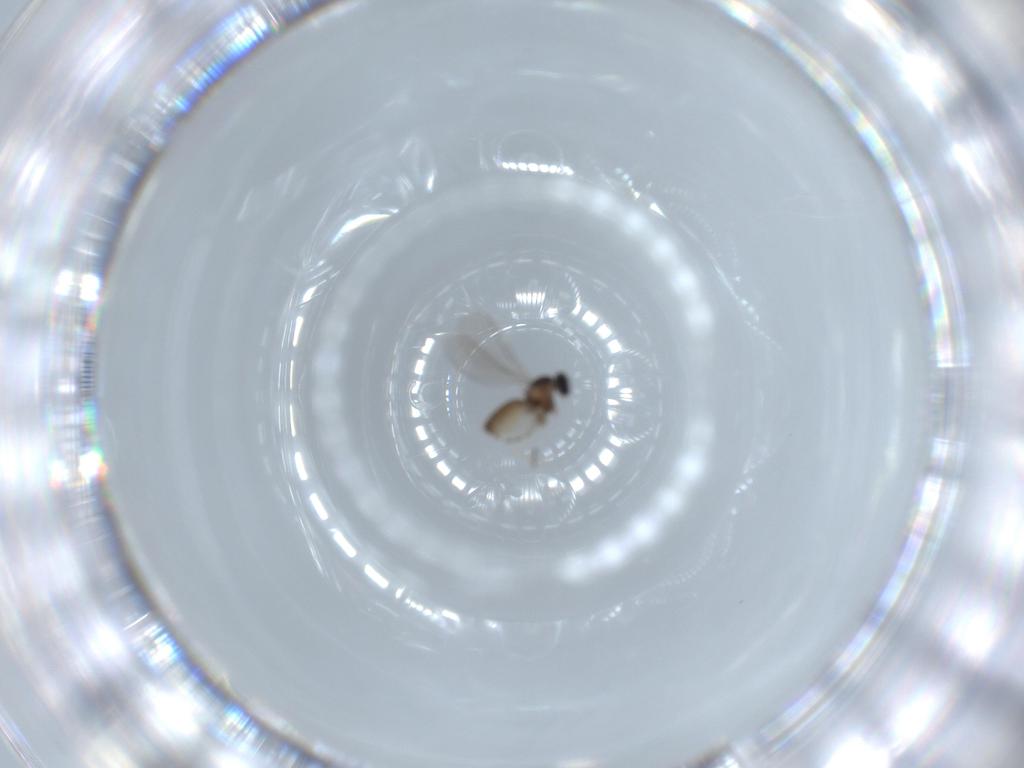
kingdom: Animalia
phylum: Arthropoda
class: Insecta
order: Diptera
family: Cecidomyiidae
